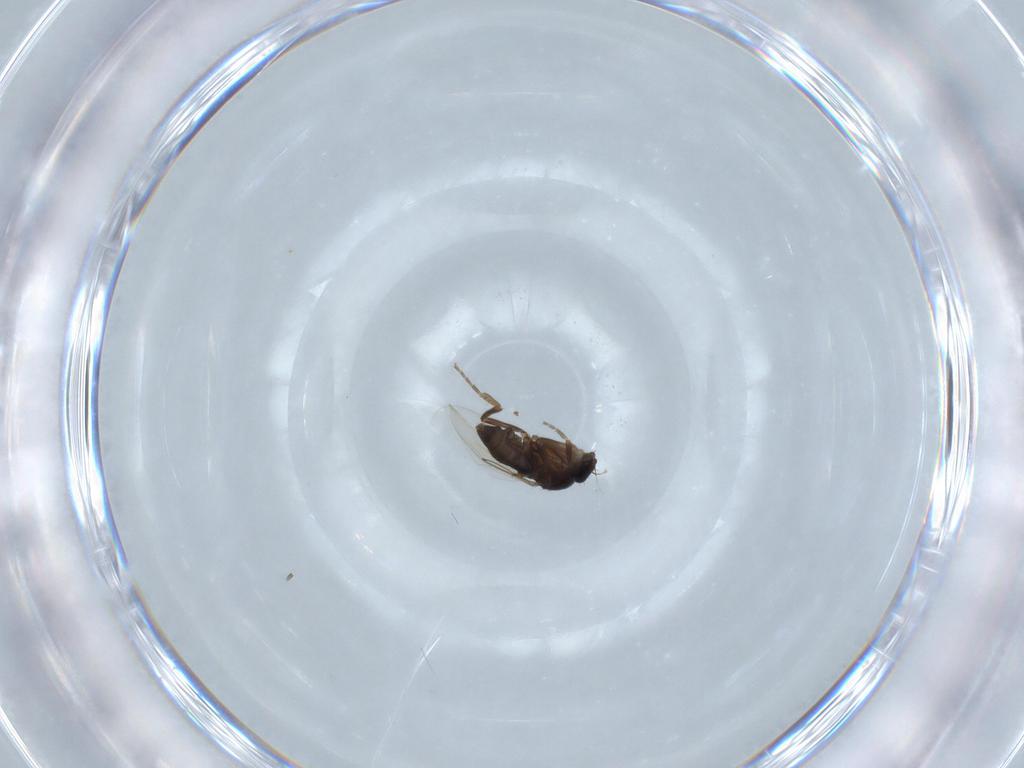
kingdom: Animalia
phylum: Arthropoda
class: Insecta
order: Diptera
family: Phoridae
